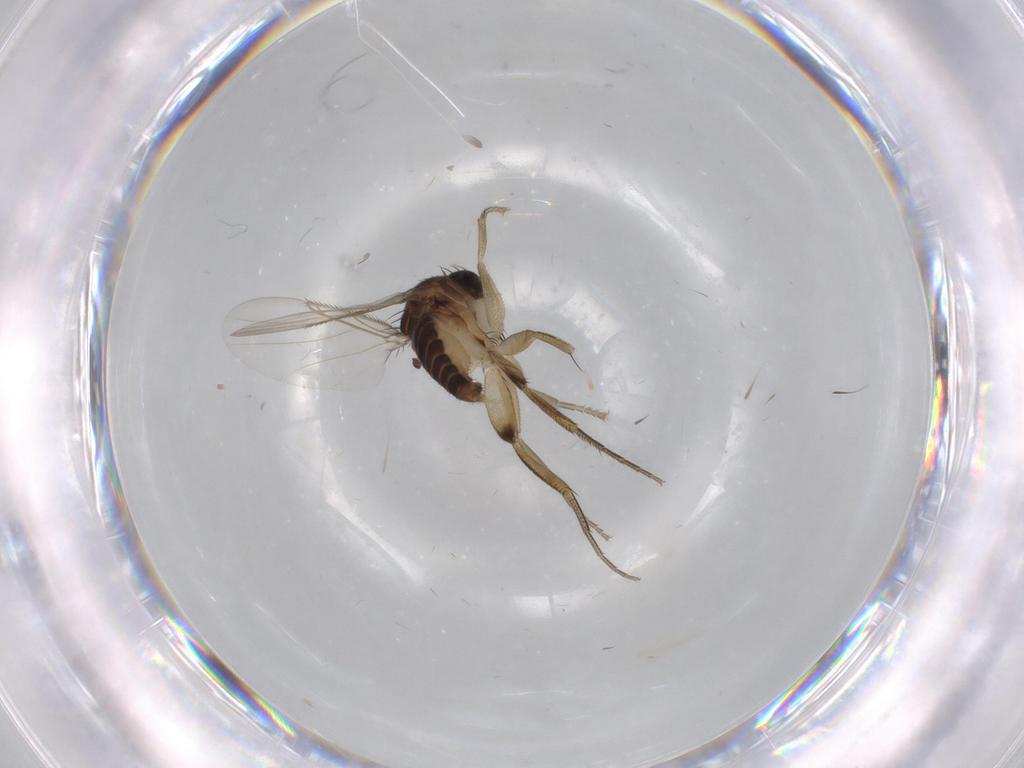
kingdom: Animalia
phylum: Arthropoda
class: Insecta
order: Diptera
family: Phoridae
